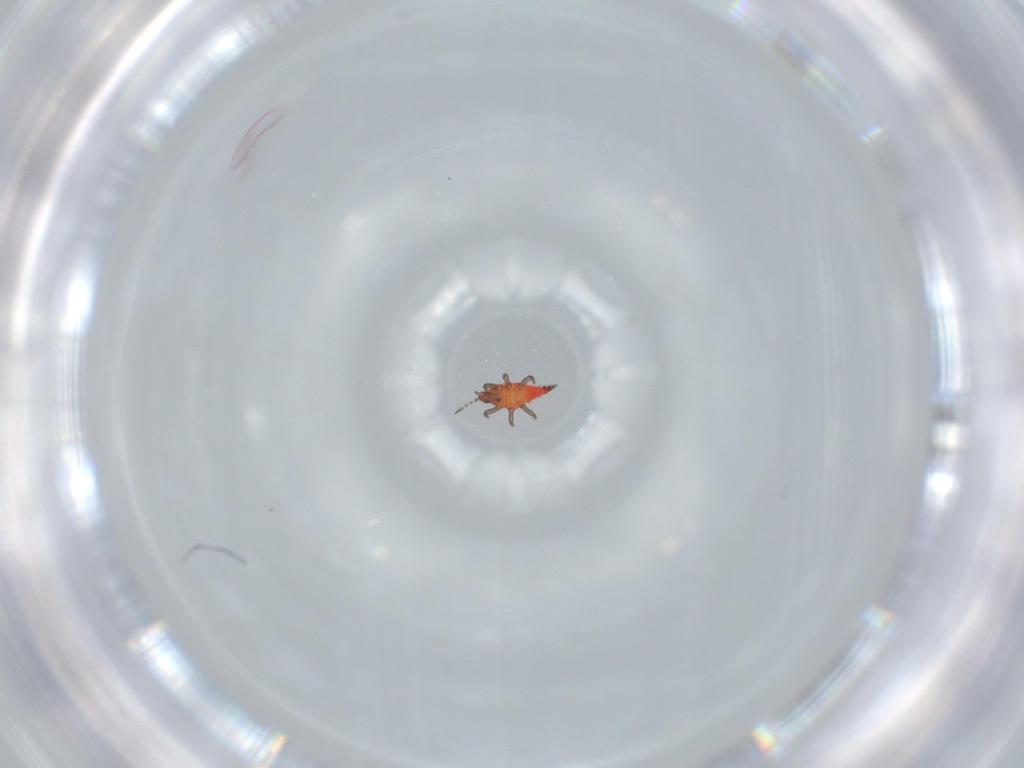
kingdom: Animalia
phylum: Arthropoda
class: Insecta
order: Thysanoptera
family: Phlaeothripidae
